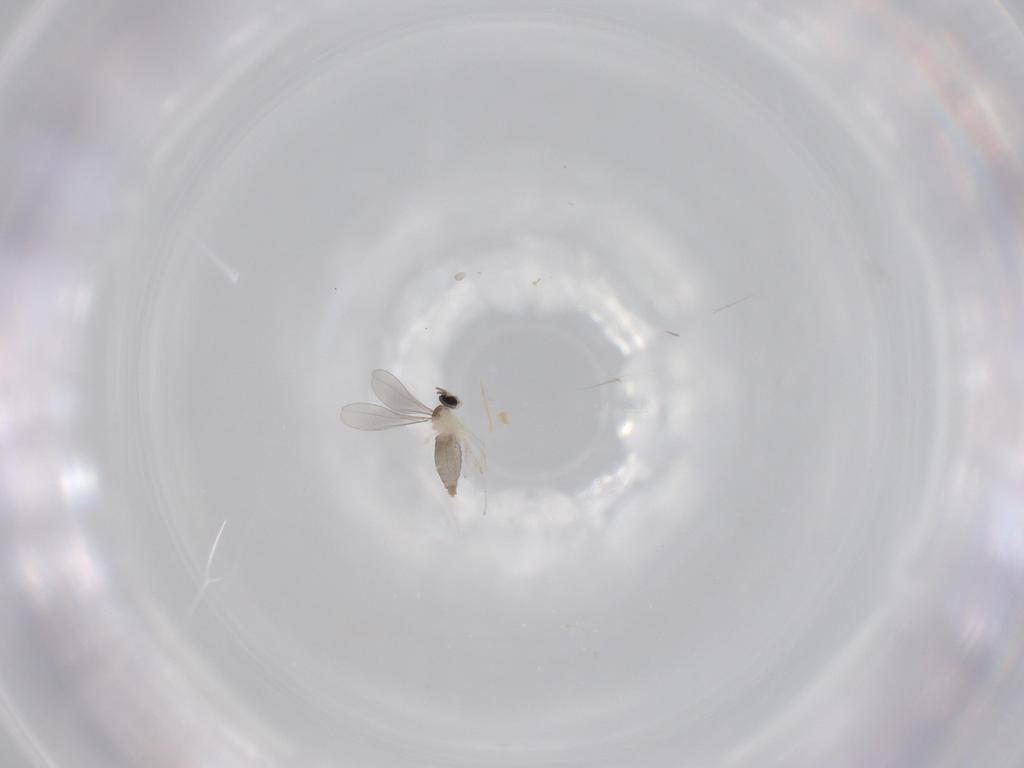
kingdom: Animalia
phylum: Arthropoda
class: Insecta
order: Diptera
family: Cecidomyiidae
